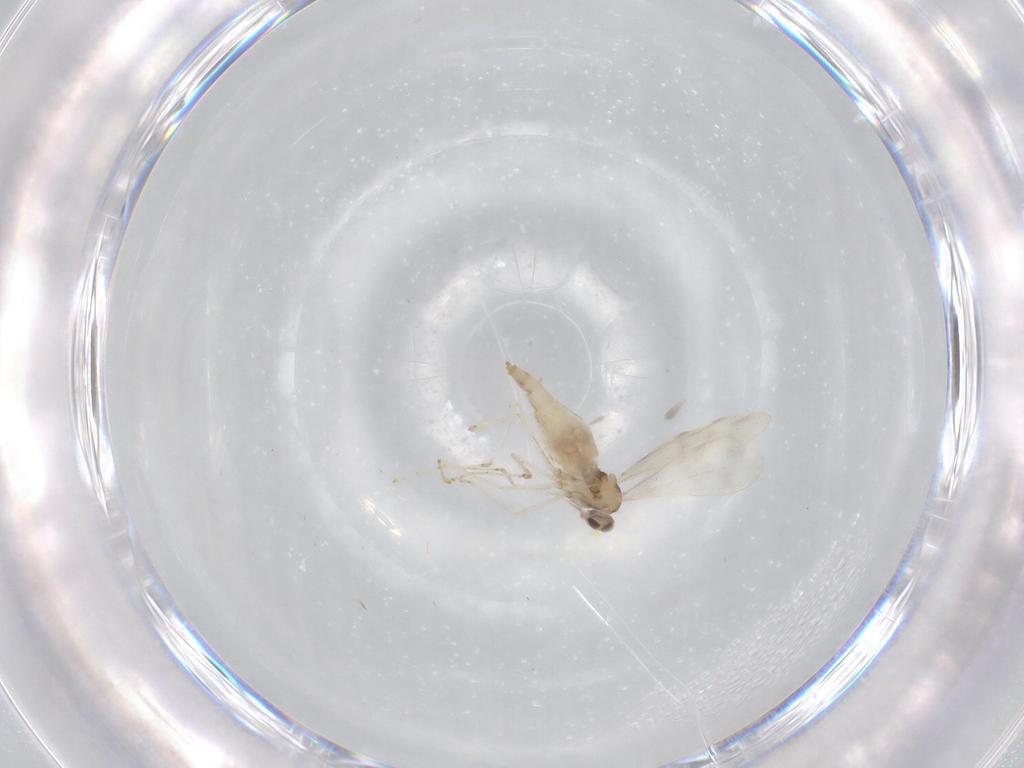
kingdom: Animalia
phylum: Arthropoda
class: Insecta
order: Diptera
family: Cecidomyiidae
